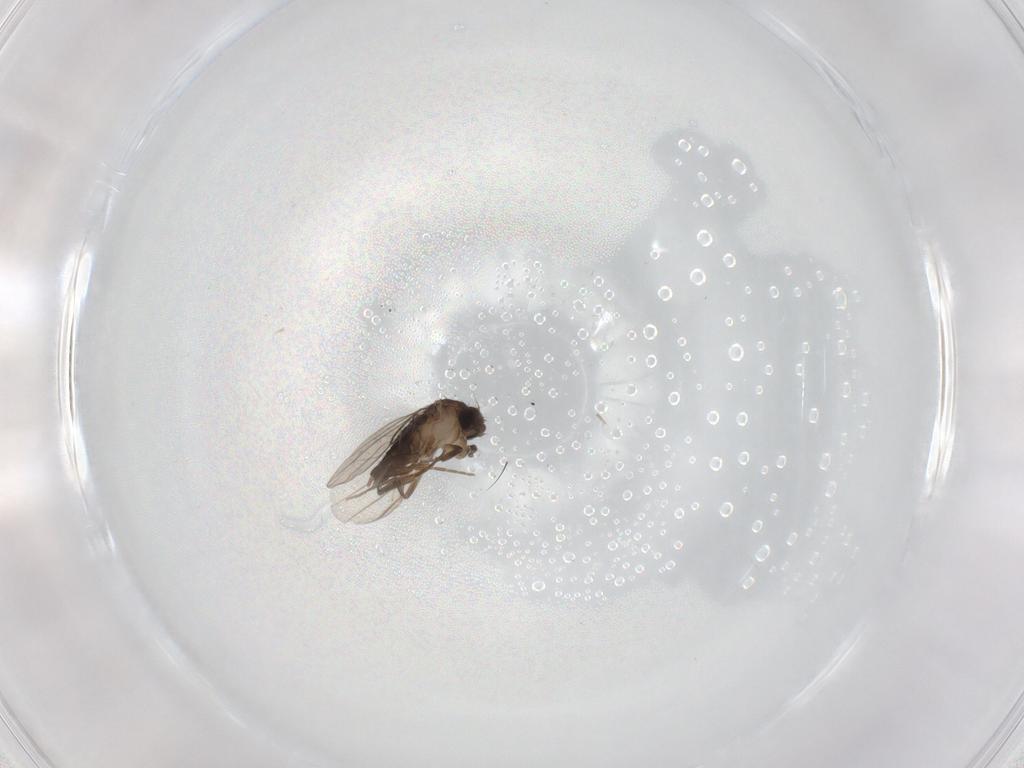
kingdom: Animalia
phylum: Arthropoda
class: Insecta
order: Diptera
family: Phoridae
